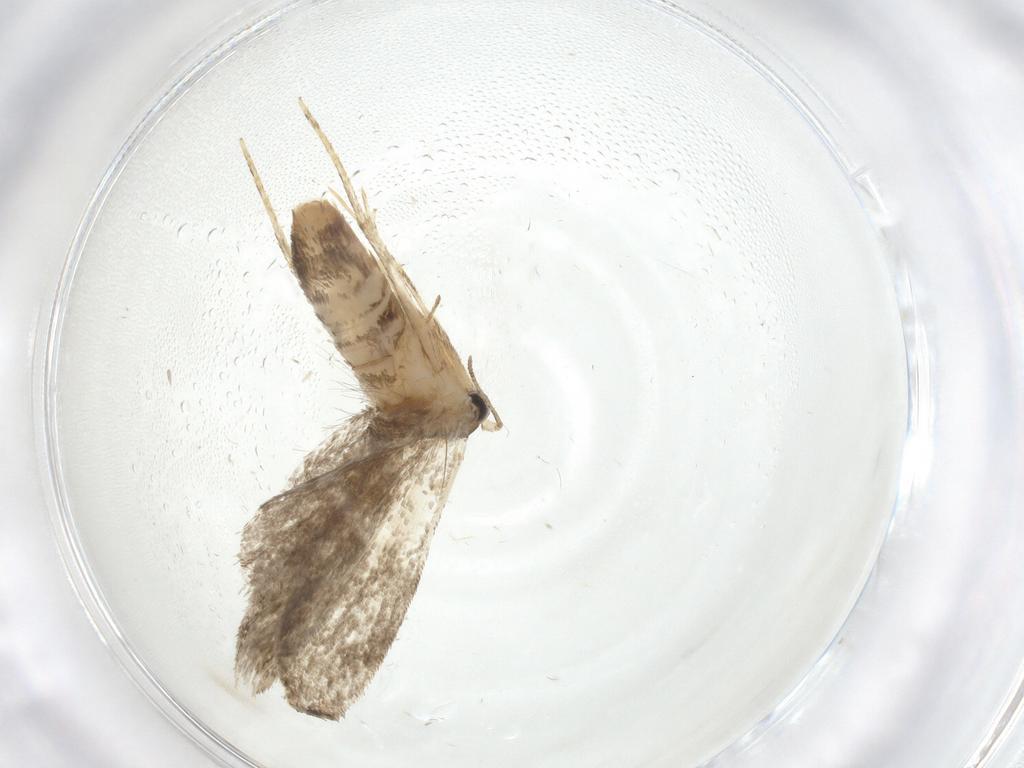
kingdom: Animalia
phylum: Arthropoda
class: Insecta
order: Lepidoptera
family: Tineidae
